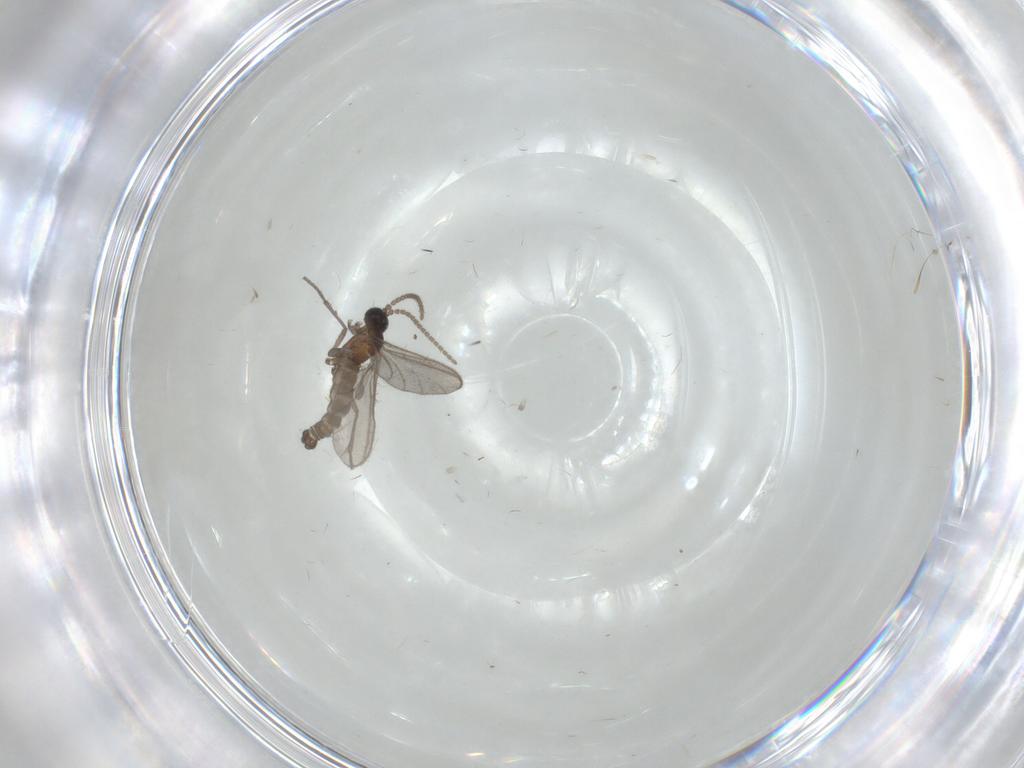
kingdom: Animalia
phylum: Arthropoda
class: Insecta
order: Diptera
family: Sciaridae
